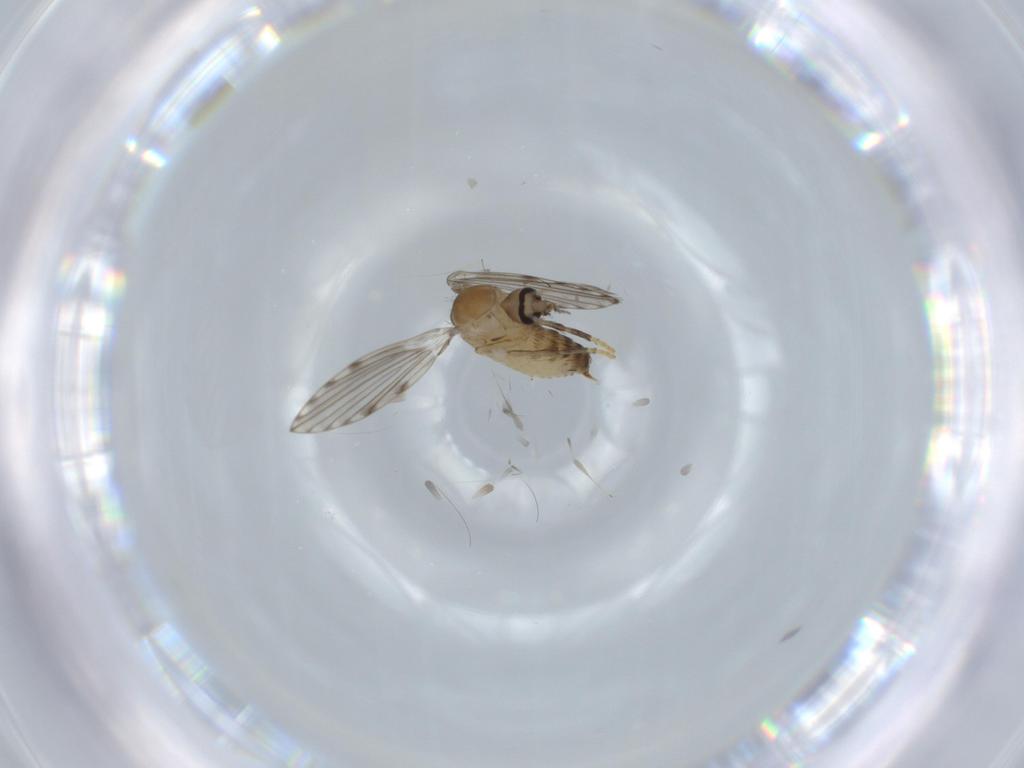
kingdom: Animalia
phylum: Arthropoda
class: Insecta
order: Diptera
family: Psychodidae
